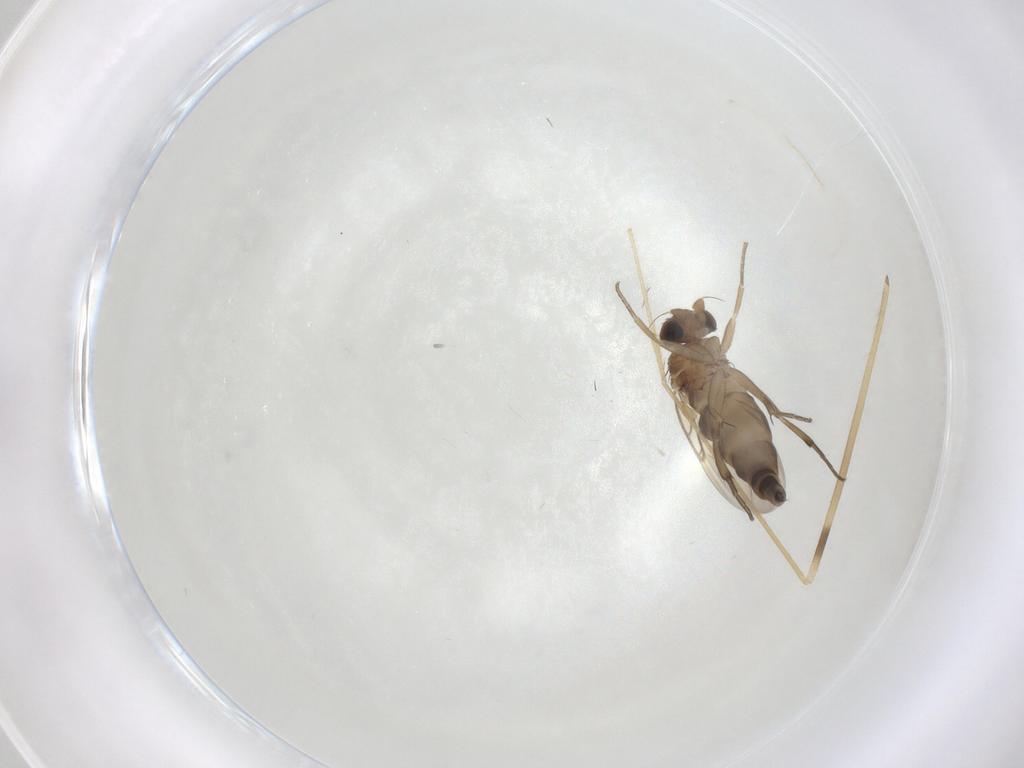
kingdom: Animalia
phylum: Arthropoda
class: Insecta
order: Diptera
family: Phoridae
